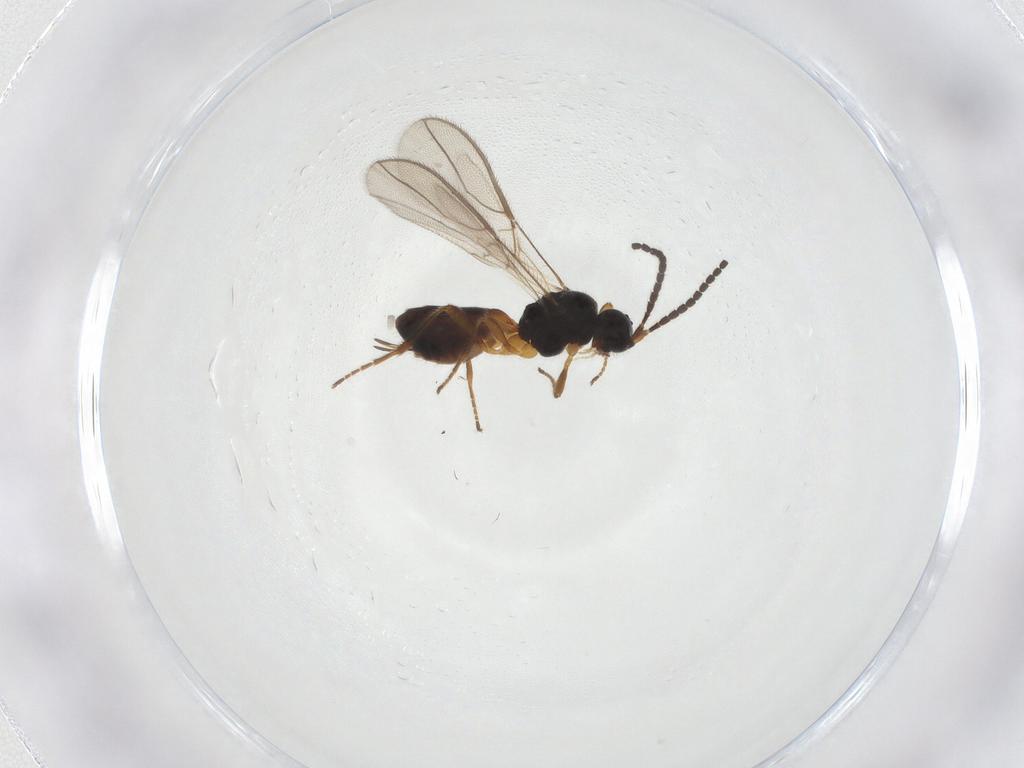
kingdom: Animalia
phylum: Arthropoda
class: Insecta
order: Hymenoptera
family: Braconidae
